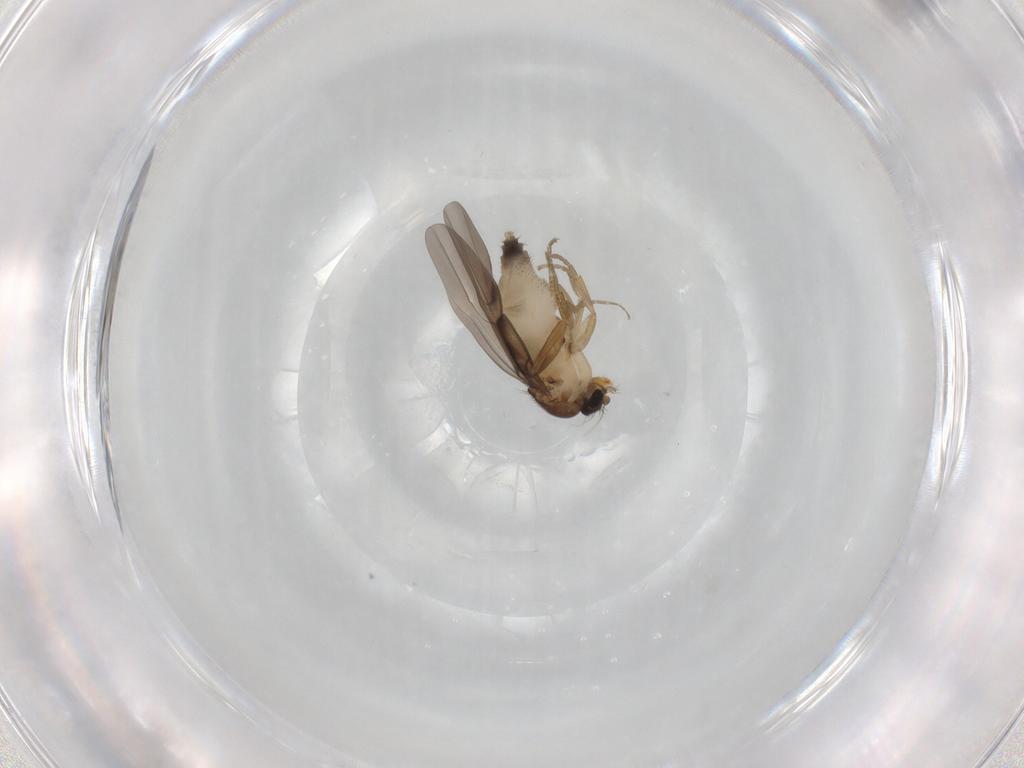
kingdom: Animalia
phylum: Arthropoda
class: Insecta
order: Diptera
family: Phoridae
